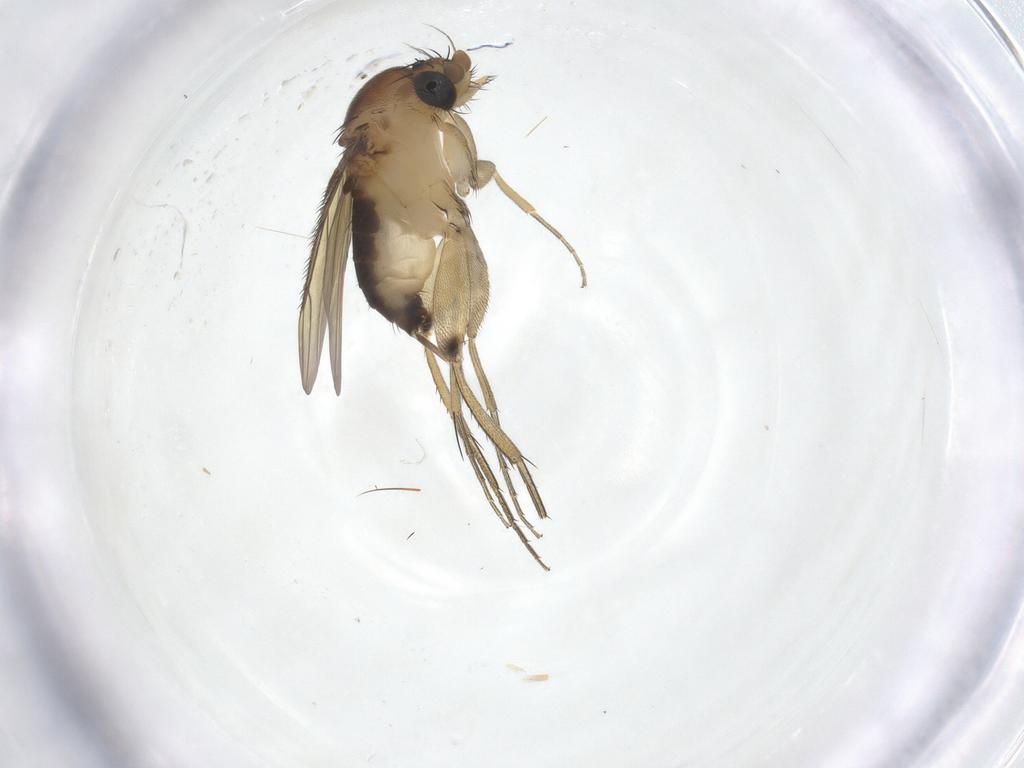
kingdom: Animalia
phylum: Arthropoda
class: Insecta
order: Diptera
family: Phoridae
